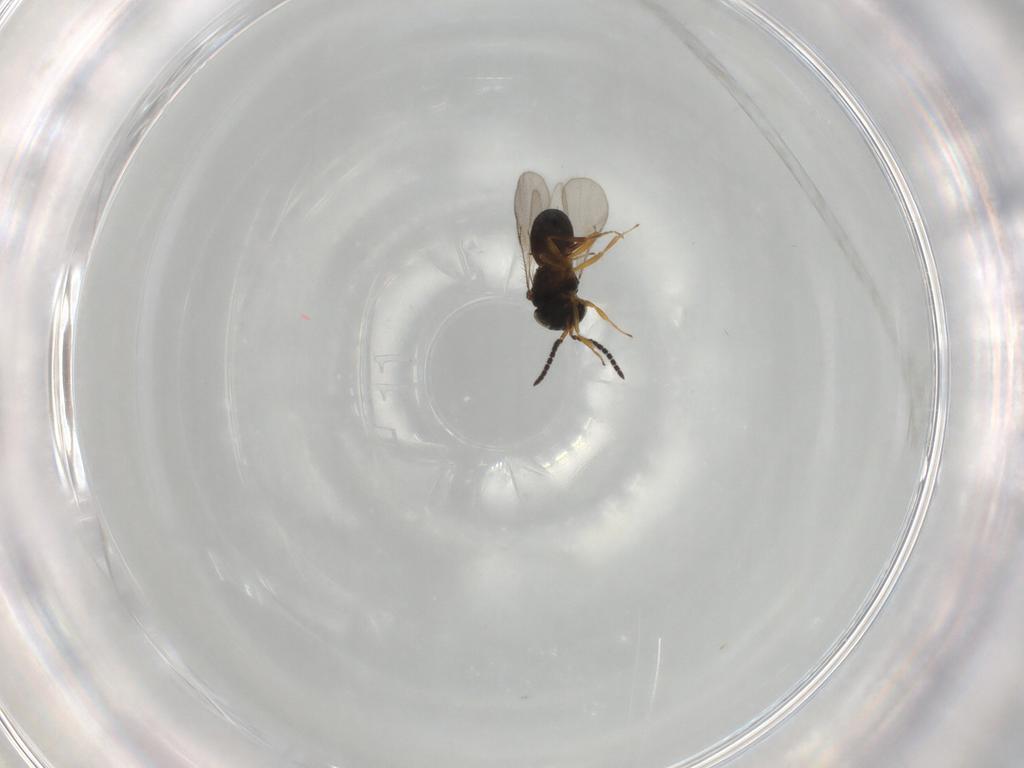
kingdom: Animalia
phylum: Arthropoda
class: Insecta
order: Hymenoptera
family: Scelionidae
